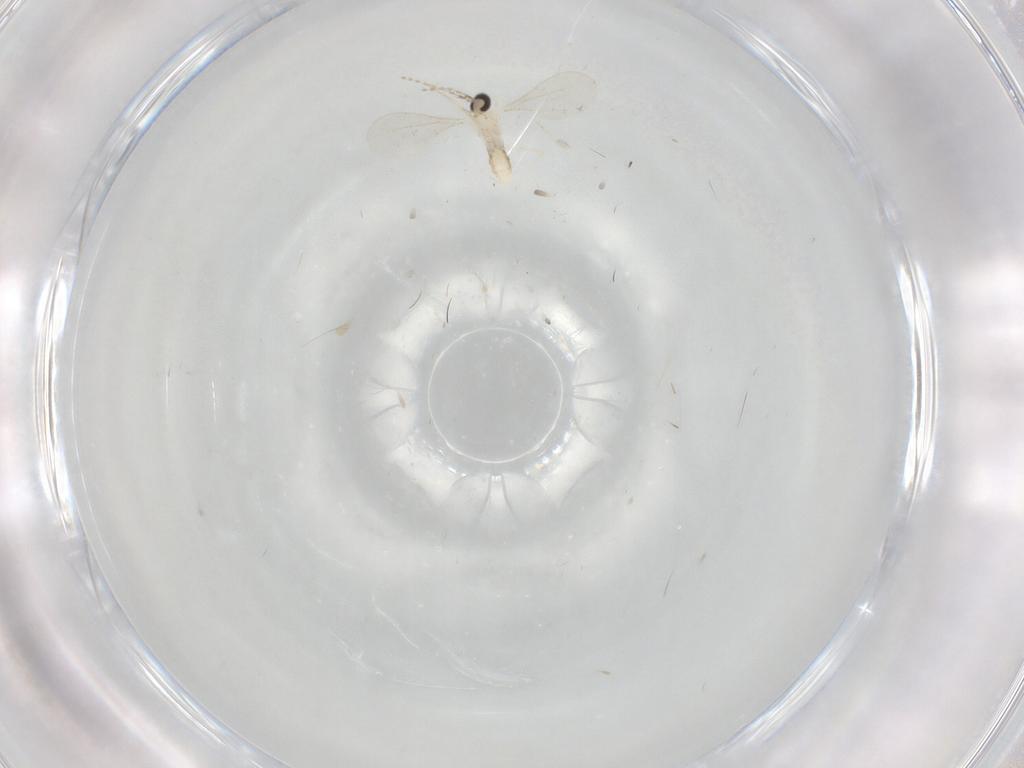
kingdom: Animalia
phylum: Arthropoda
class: Insecta
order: Diptera
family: Cecidomyiidae
